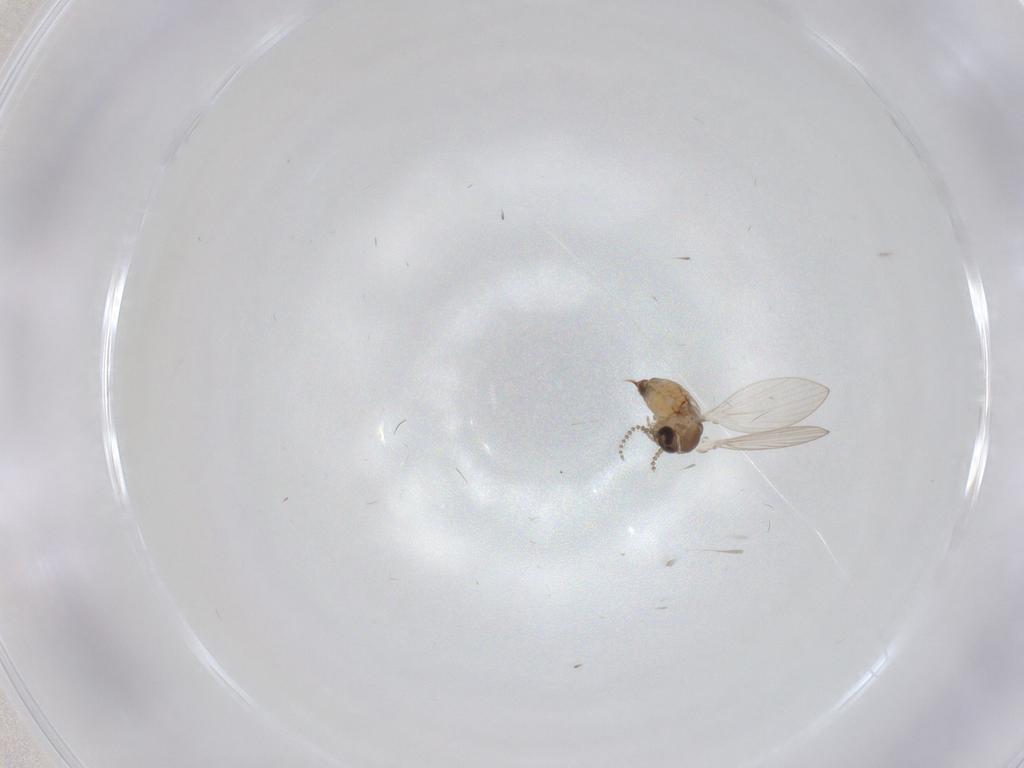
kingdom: Animalia
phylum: Arthropoda
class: Insecta
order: Diptera
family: Psychodidae
